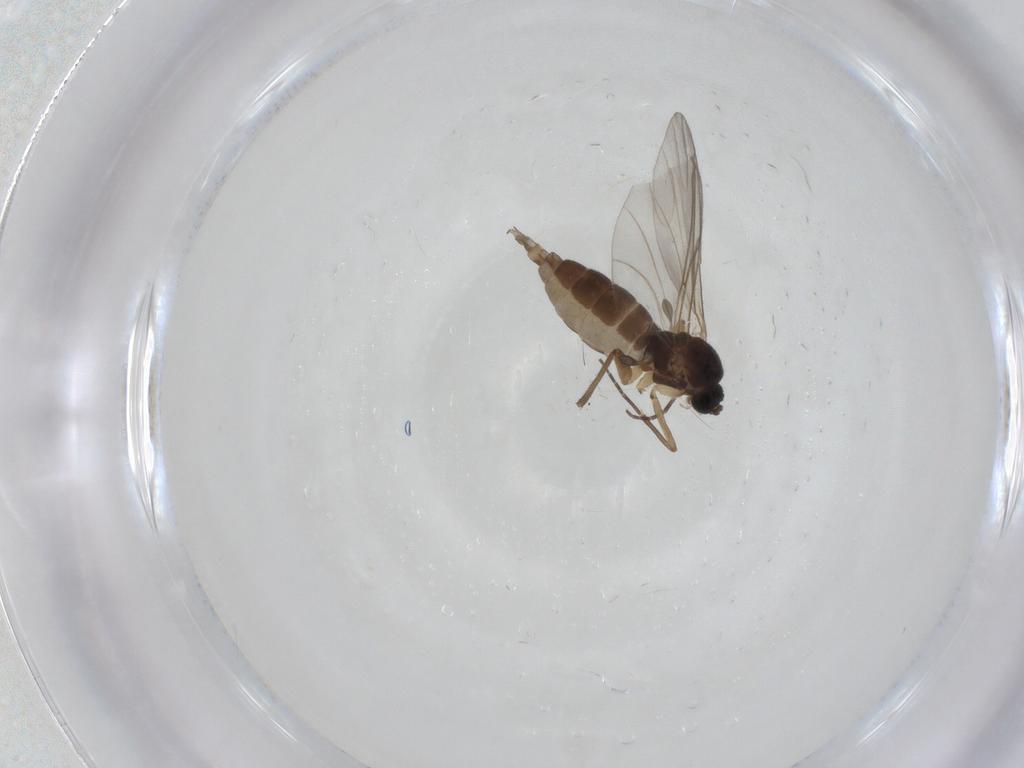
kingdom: Animalia
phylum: Arthropoda
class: Insecta
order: Diptera
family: Sciaridae
